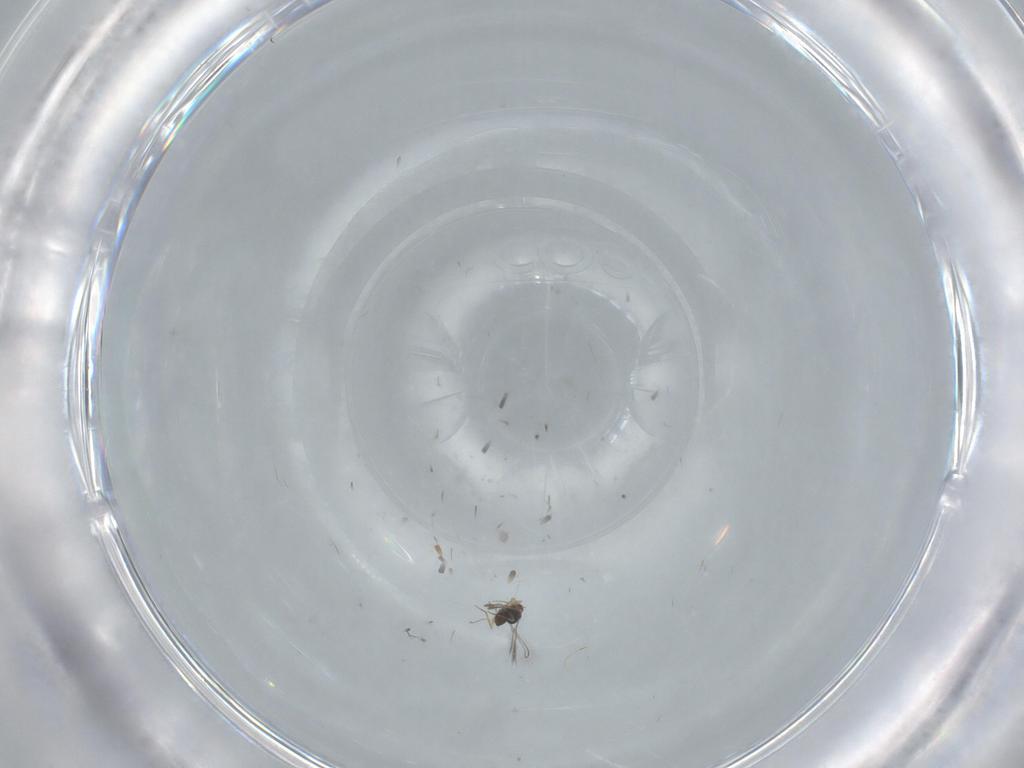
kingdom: Animalia
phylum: Arthropoda
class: Insecta
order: Hymenoptera
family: Mymaridae
